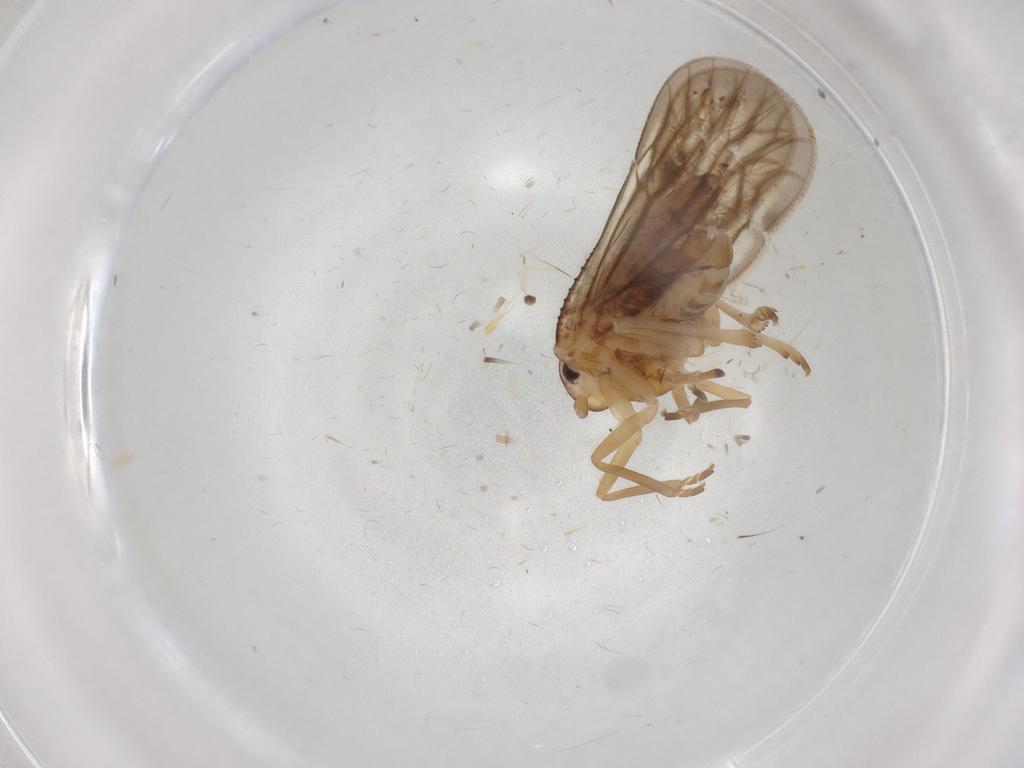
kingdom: Animalia
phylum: Arthropoda
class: Insecta
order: Hemiptera
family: Meenoplidae
